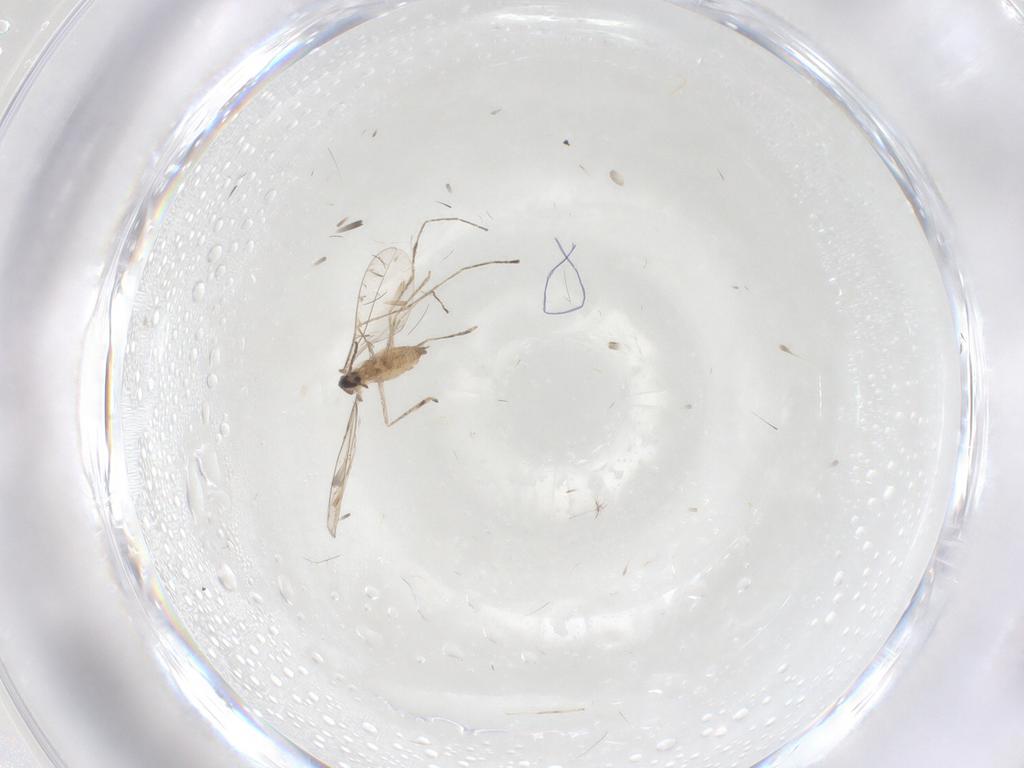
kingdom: Animalia
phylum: Arthropoda
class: Insecta
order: Diptera
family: Cecidomyiidae
